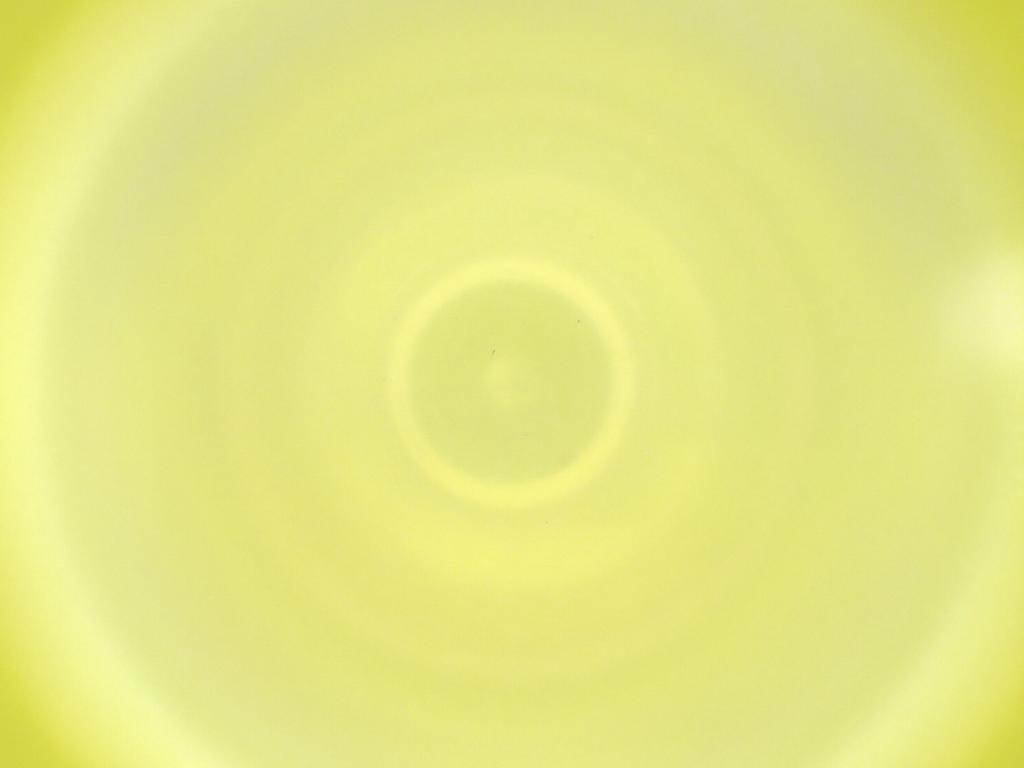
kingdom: Animalia
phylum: Arthropoda
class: Insecta
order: Diptera
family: Cecidomyiidae
